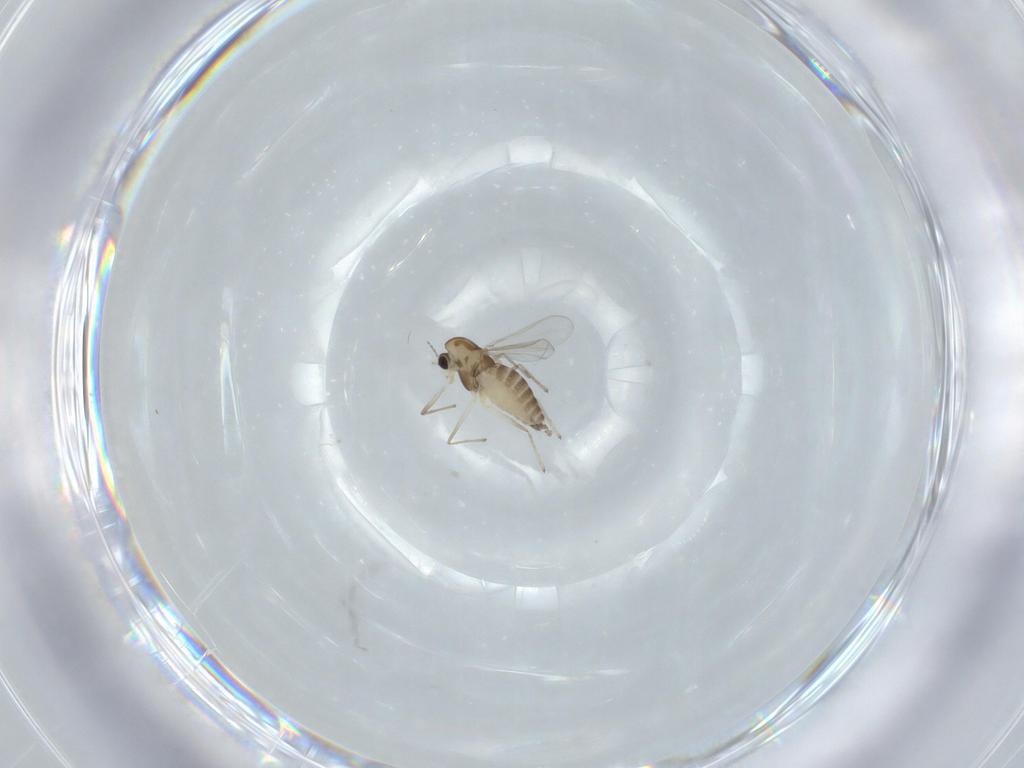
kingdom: Animalia
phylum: Arthropoda
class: Insecta
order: Diptera
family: Chironomidae
